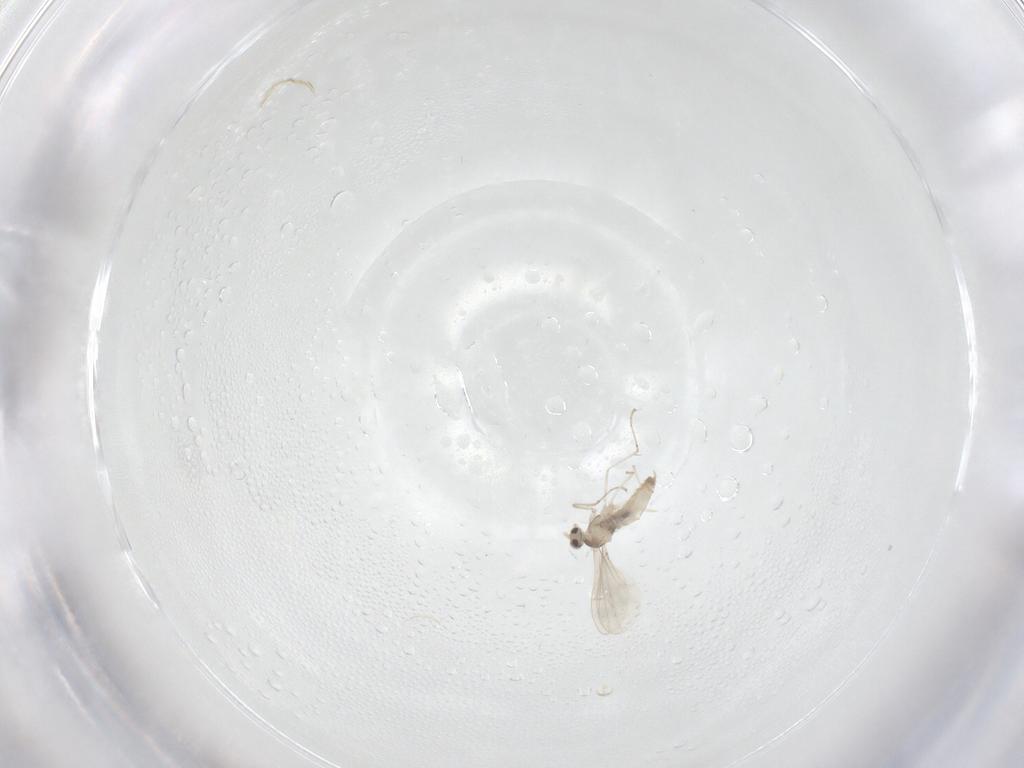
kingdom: Animalia
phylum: Arthropoda
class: Insecta
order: Diptera
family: Cecidomyiidae
